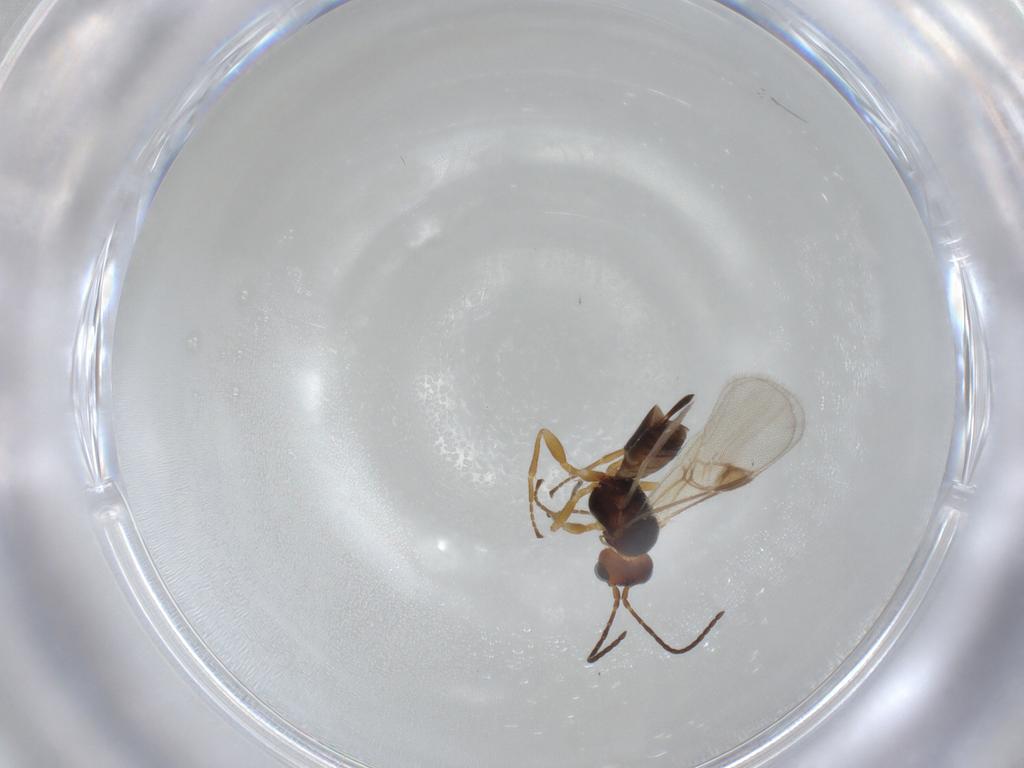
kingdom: Animalia
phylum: Arthropoda
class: Insecta
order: Hymenoptera
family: Braconidae
